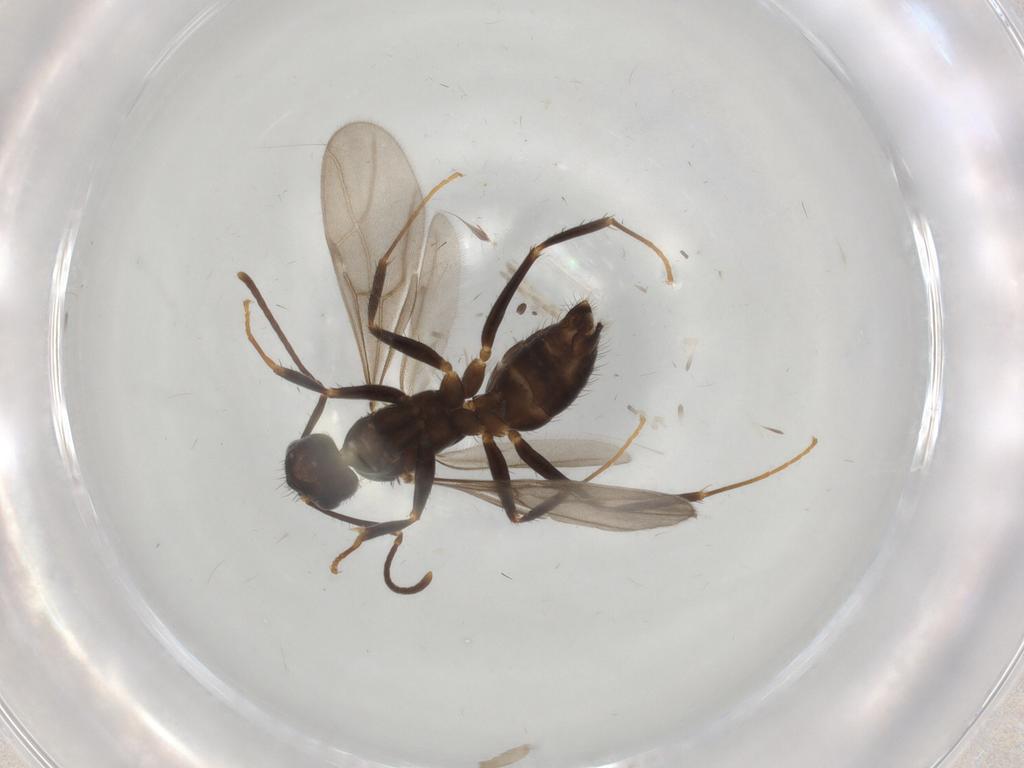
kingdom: Animalia
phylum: Arthropoda
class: Insecta
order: Hymenoptera
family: Formicidae
